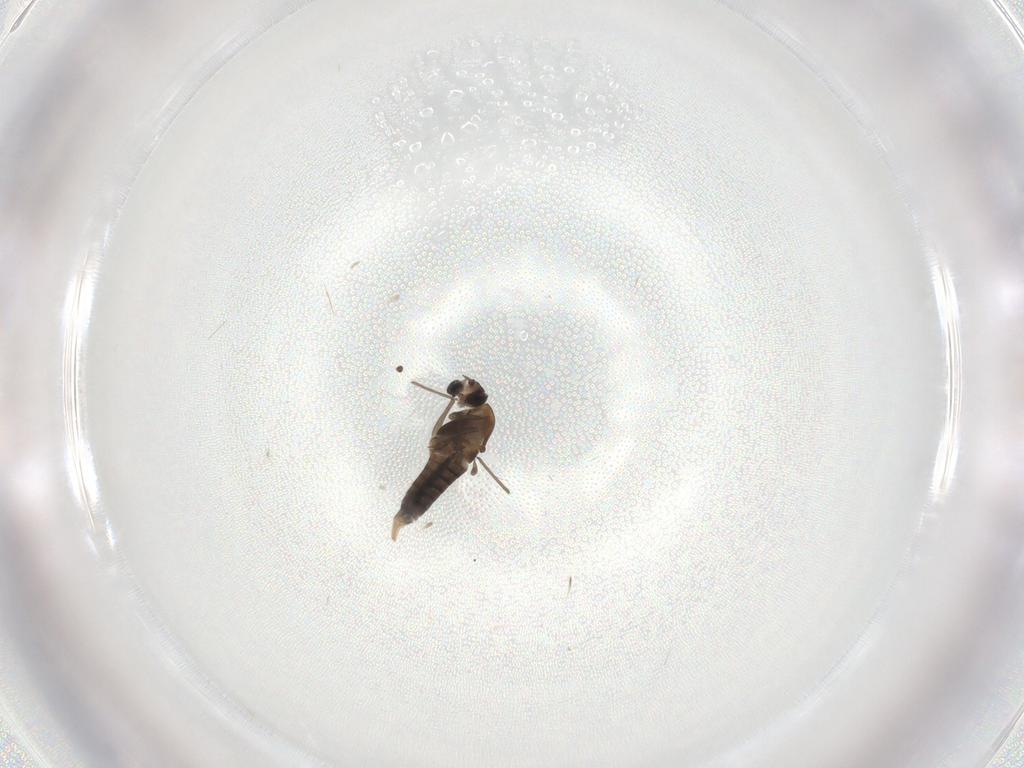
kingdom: Animalia
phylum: Arthropoda
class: Insecta
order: Diptera
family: Chironomidae
